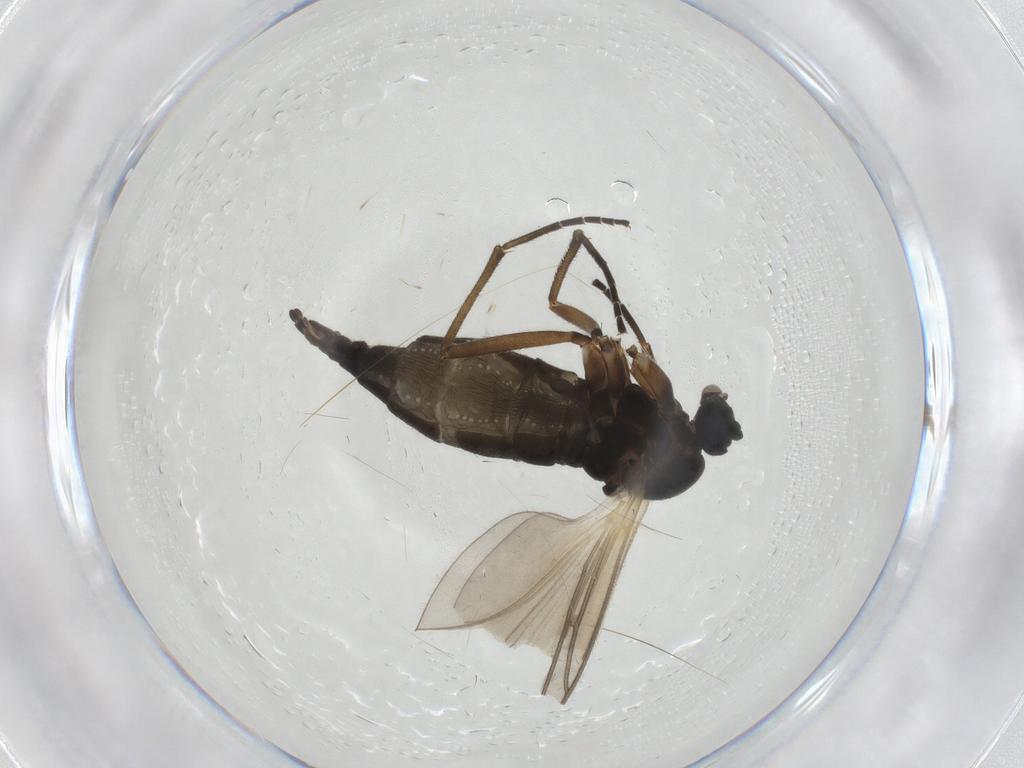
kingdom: Animalia
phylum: Arthropoda
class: Insecta
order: Diptera
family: Sciaridae
